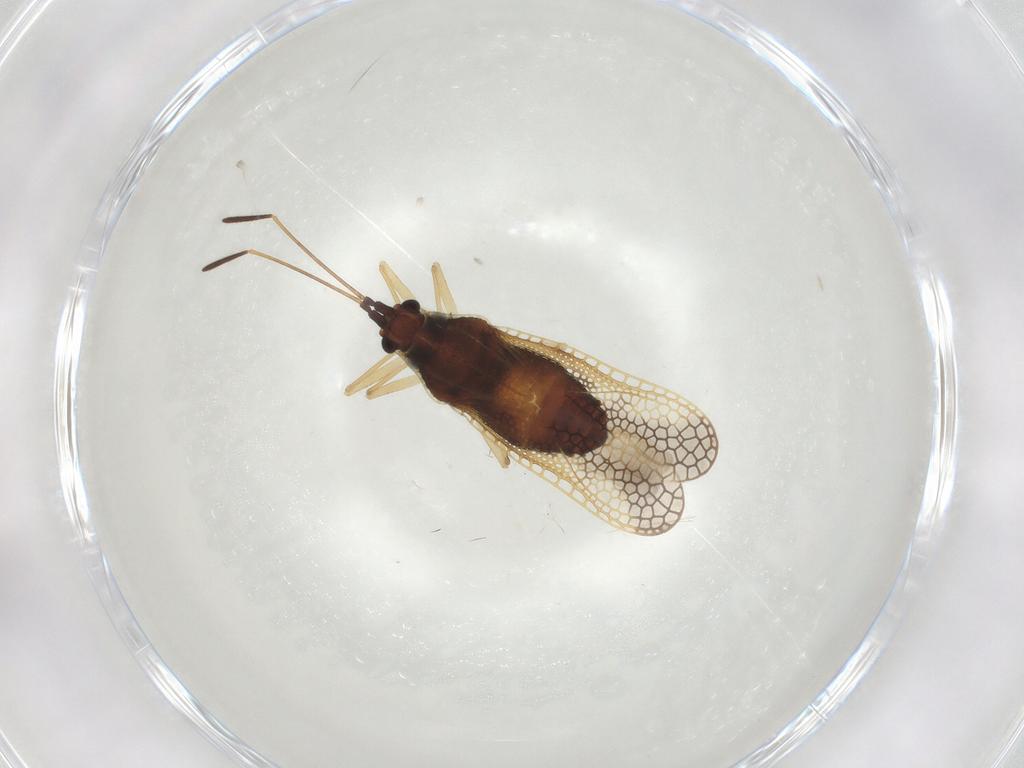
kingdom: Animalia
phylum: Arthropoda
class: Insecta
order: Hemiptera
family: Tingidae
